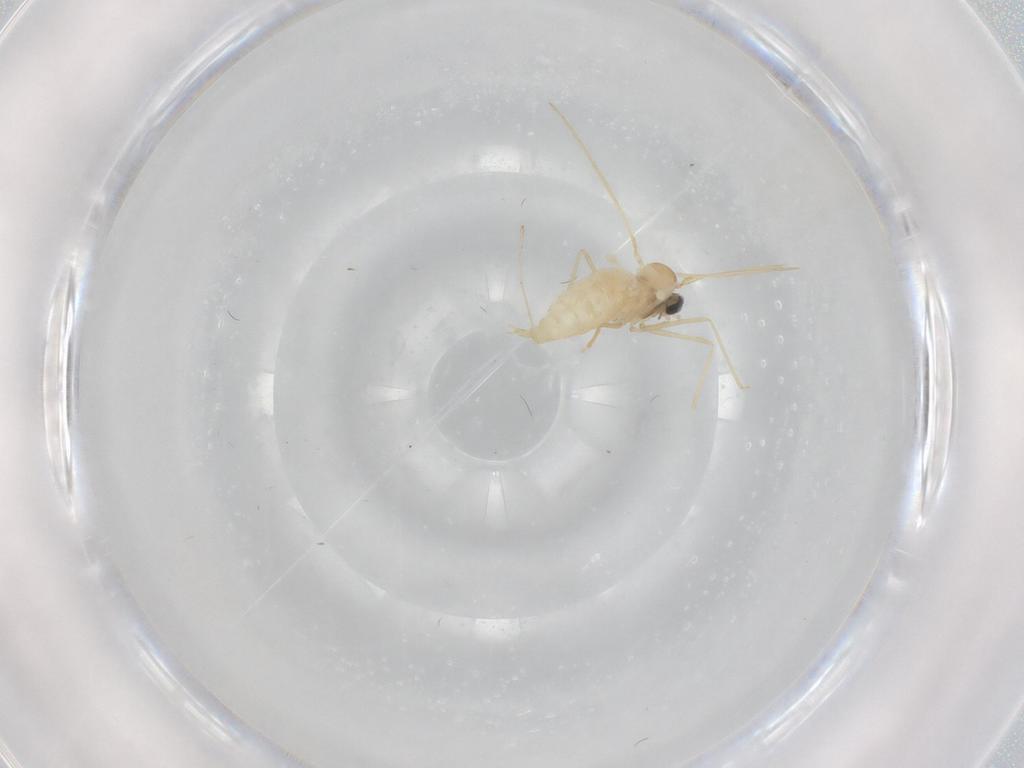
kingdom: Animalia
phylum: Arthropoda
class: Insecta
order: Diptera
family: Cecidomyiidae
